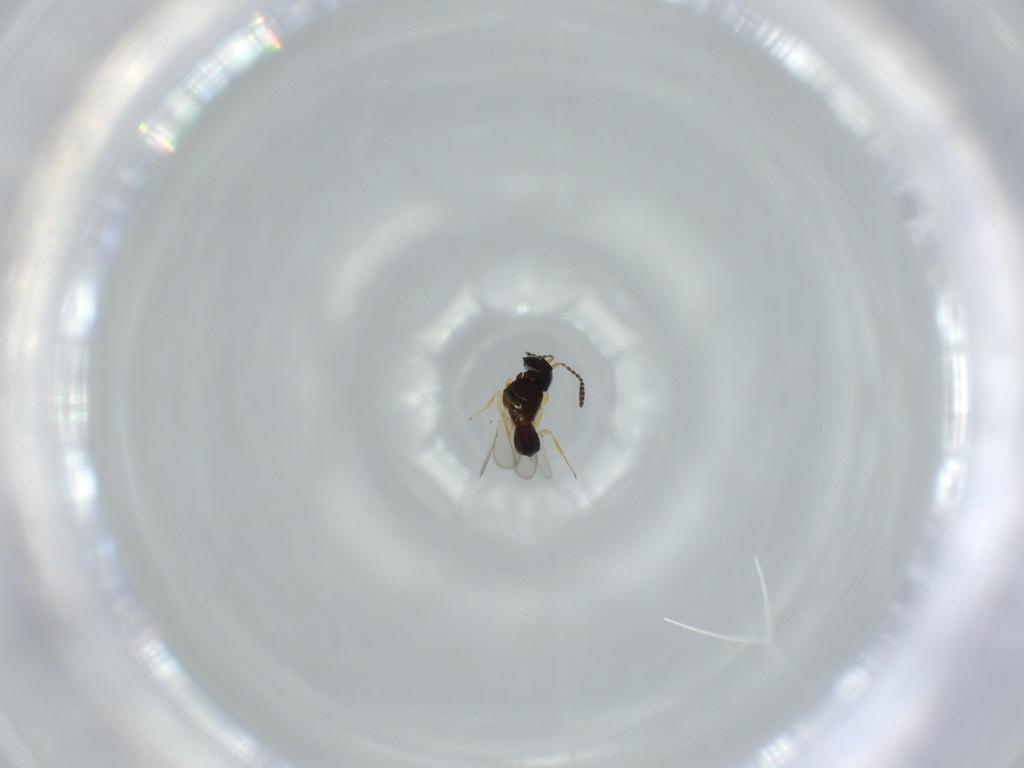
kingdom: Animalia
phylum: Arthropoda
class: Insecta
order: Hymenoptera
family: Scelionidae
